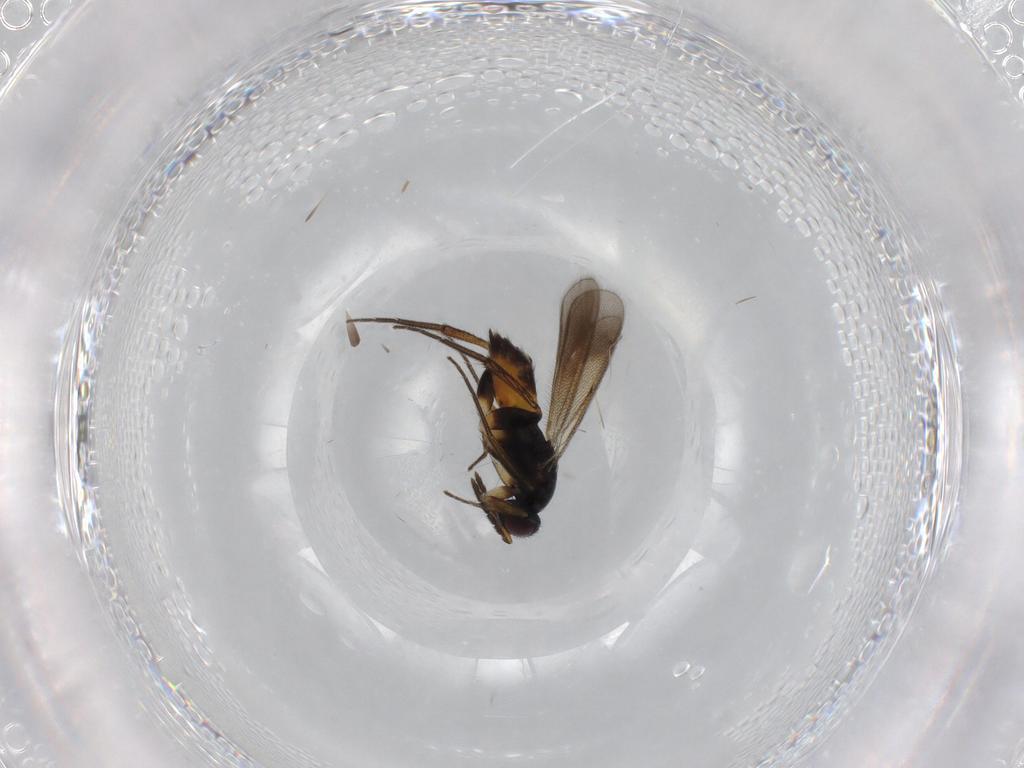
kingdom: Animalia
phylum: Arthropoda
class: Insecta
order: Hymenoptera
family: Eulophidae
